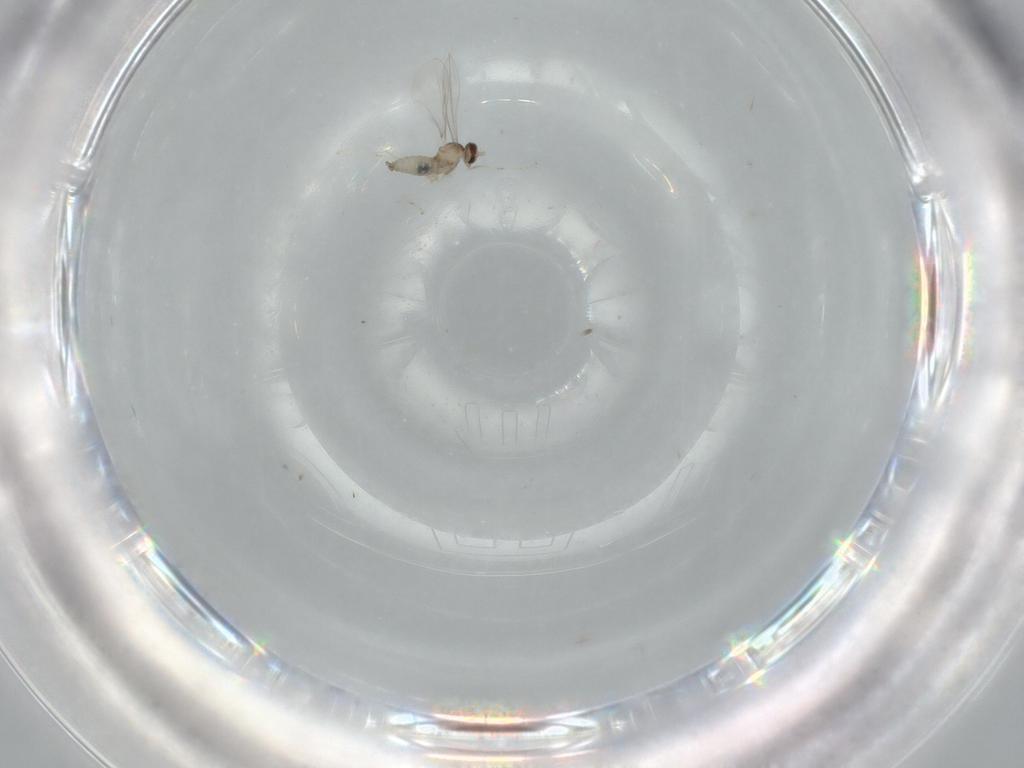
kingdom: Animalia
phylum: Arthropoda
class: Insecta
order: Diptera
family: Cecidomyiidae
